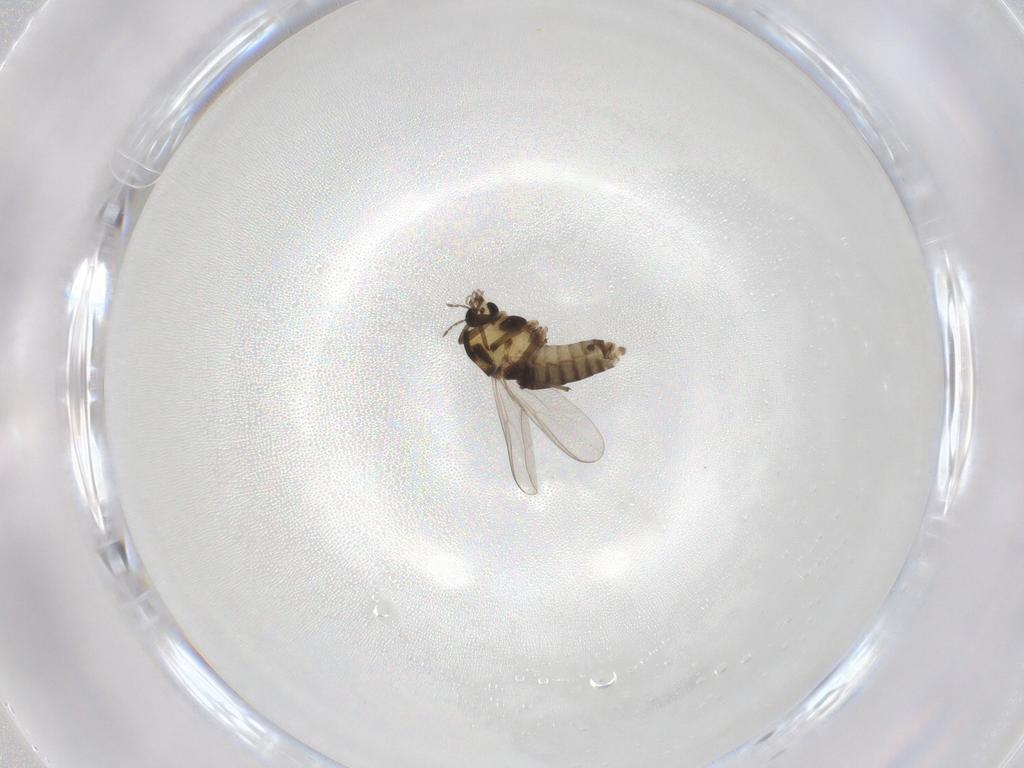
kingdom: Animalia
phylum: Arthropoda
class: Insecta
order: Diptera
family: Chironomidae
